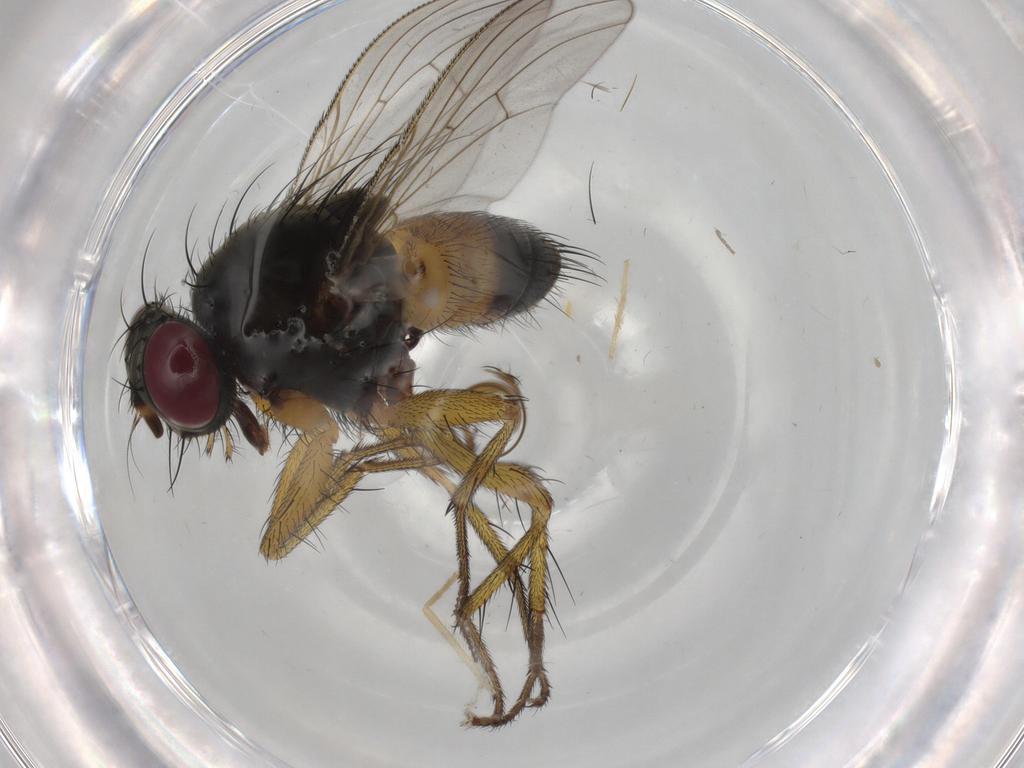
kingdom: Animalia
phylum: Arthropoda
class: Insecta
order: Diptera
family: Muscidae
